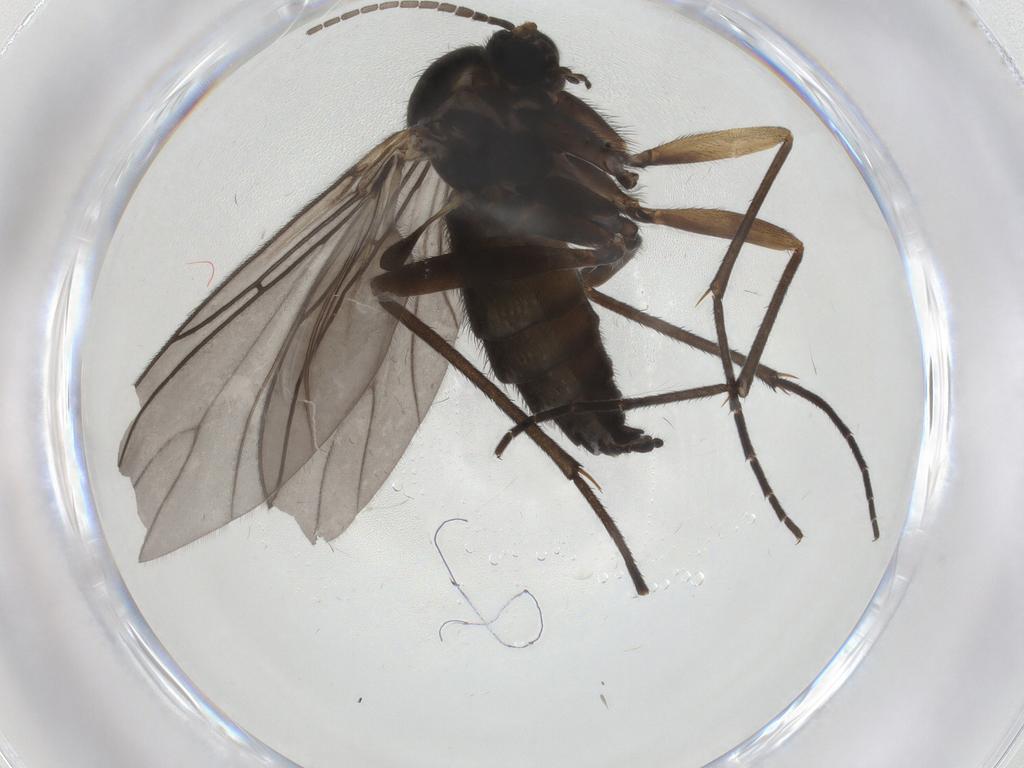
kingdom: Animalia
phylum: Arthropoda
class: Insecta
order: Diptera
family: Sciaridae
